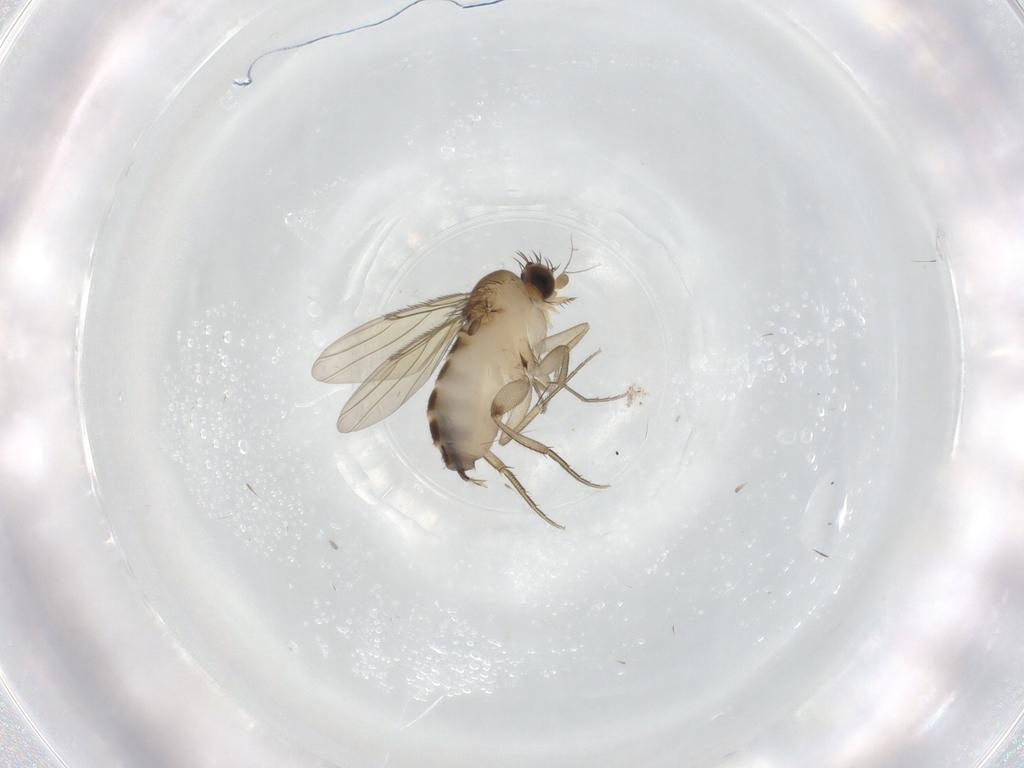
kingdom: Animalia
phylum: Arthropoda
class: Insecta
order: Diptera
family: Phoridae
